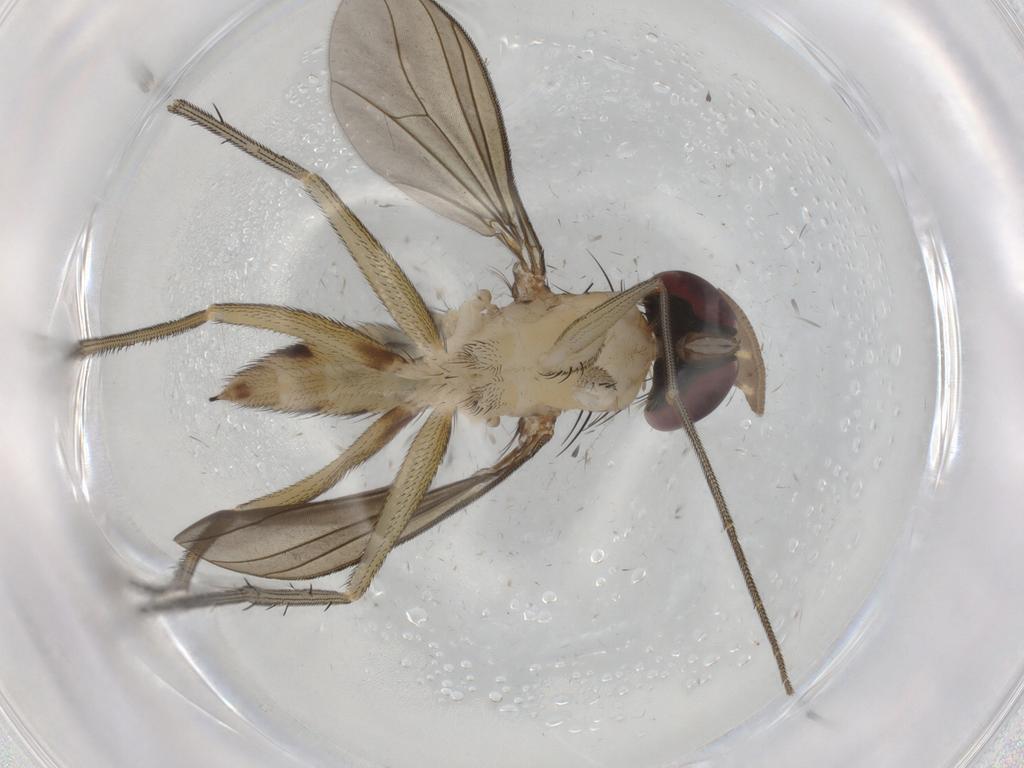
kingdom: Animalia
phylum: Arthropoda
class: Insecta
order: Diptera
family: Dolichopodidae
